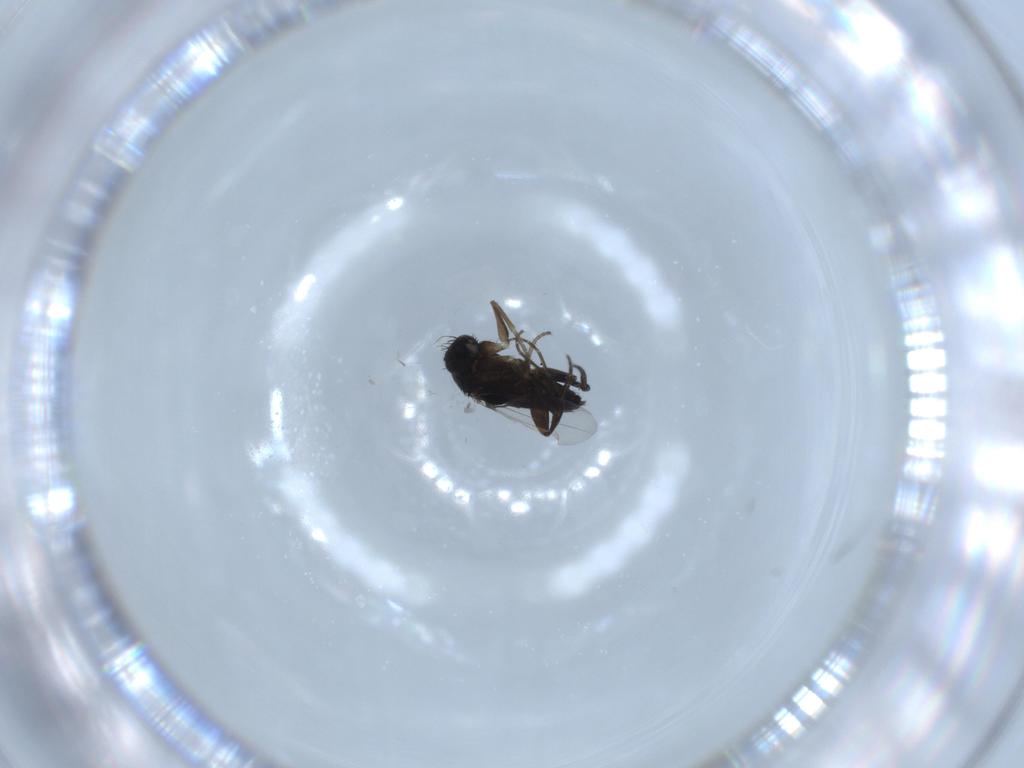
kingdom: Animalia
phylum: Arthropoda
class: Insecta
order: Diptera
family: Phoridae
